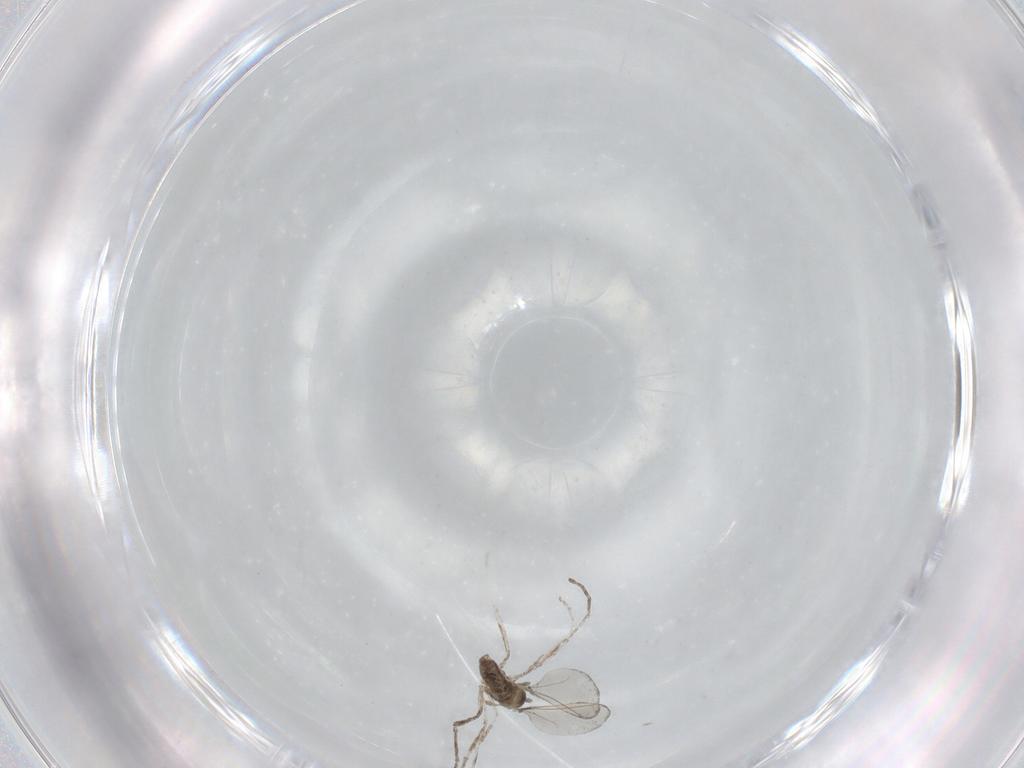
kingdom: Animalia
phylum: Arthropoda
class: Insecta
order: Diptera
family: Cecidomyiidae
